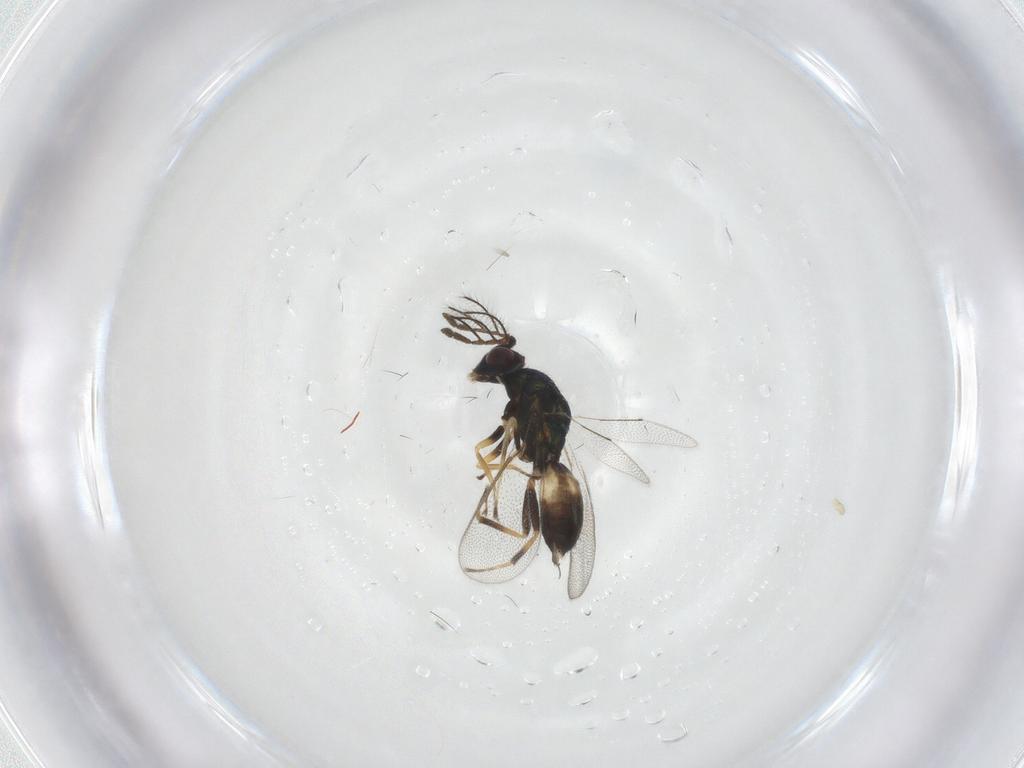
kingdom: Animalia
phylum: Arthropoda
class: Insecta
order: Hymenoptera
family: Eulophidae
